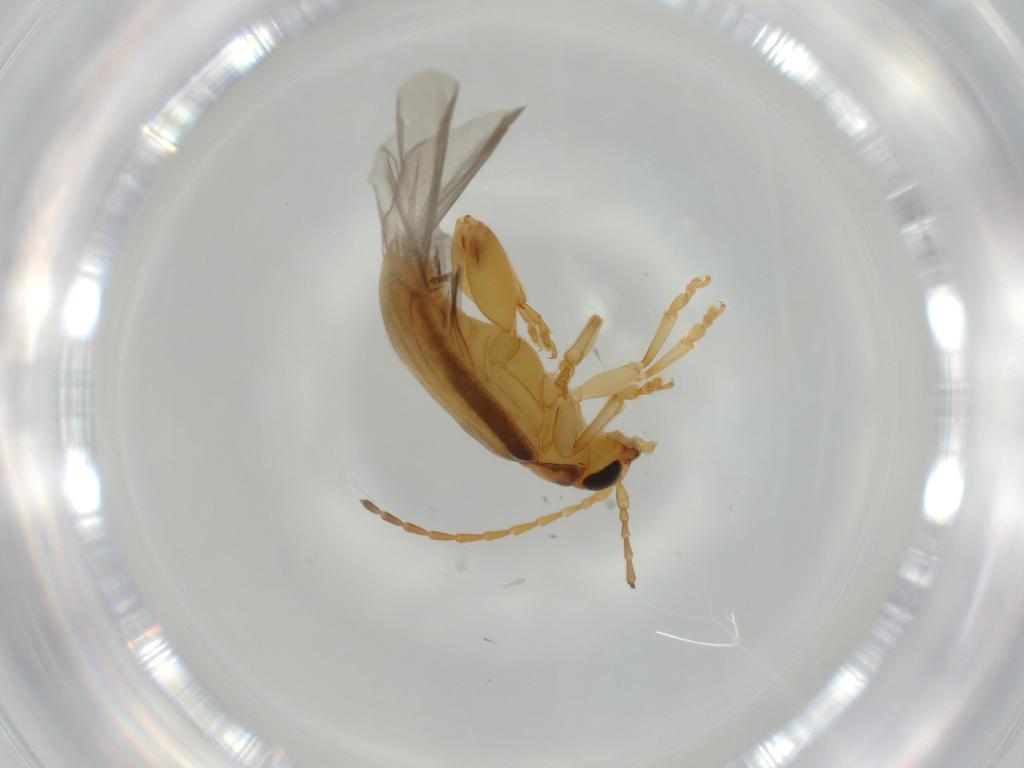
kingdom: Animalia
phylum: Arthropoda
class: Insecta
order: Coleoptera
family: Chrysomelidae
